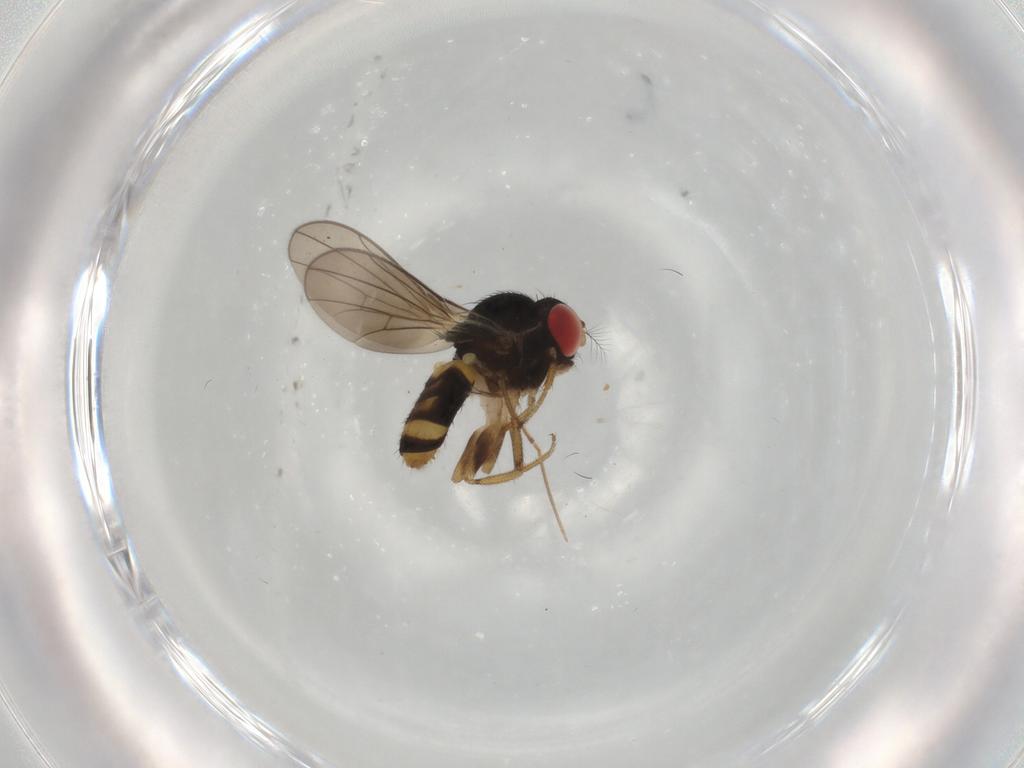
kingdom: Animalia
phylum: Arthropoda
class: Insecta
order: Diptera
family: Drosophilidae
